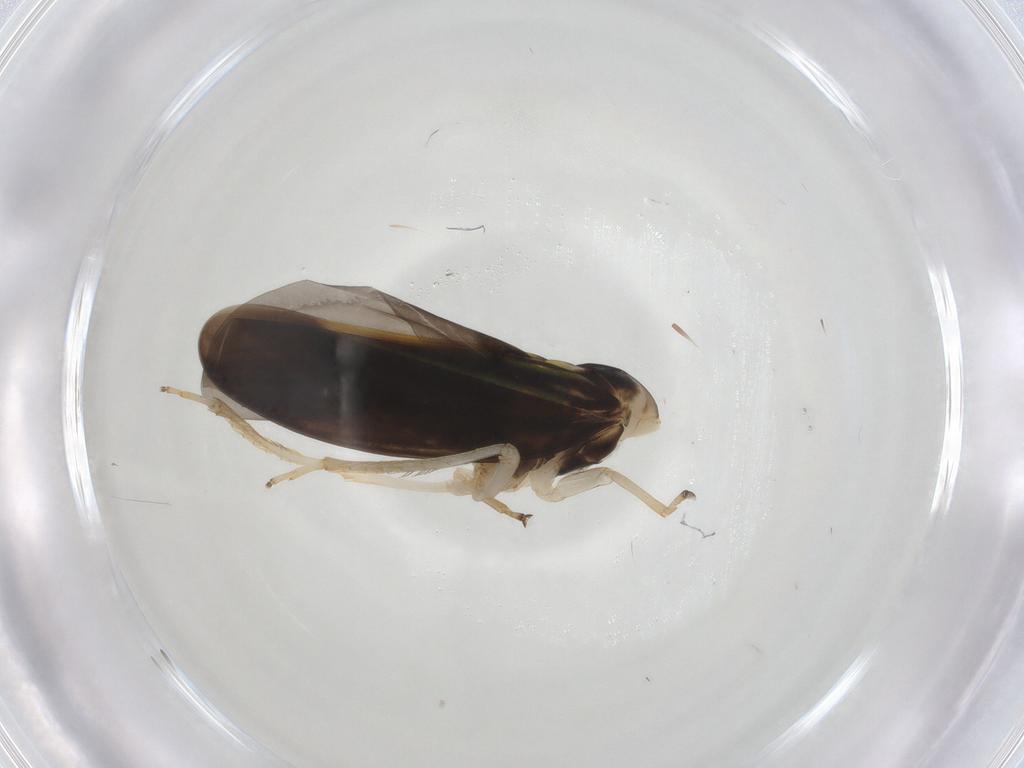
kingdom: Animalia
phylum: Arthropoda
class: Insecta
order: Hemiptera
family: Cicadellidae
